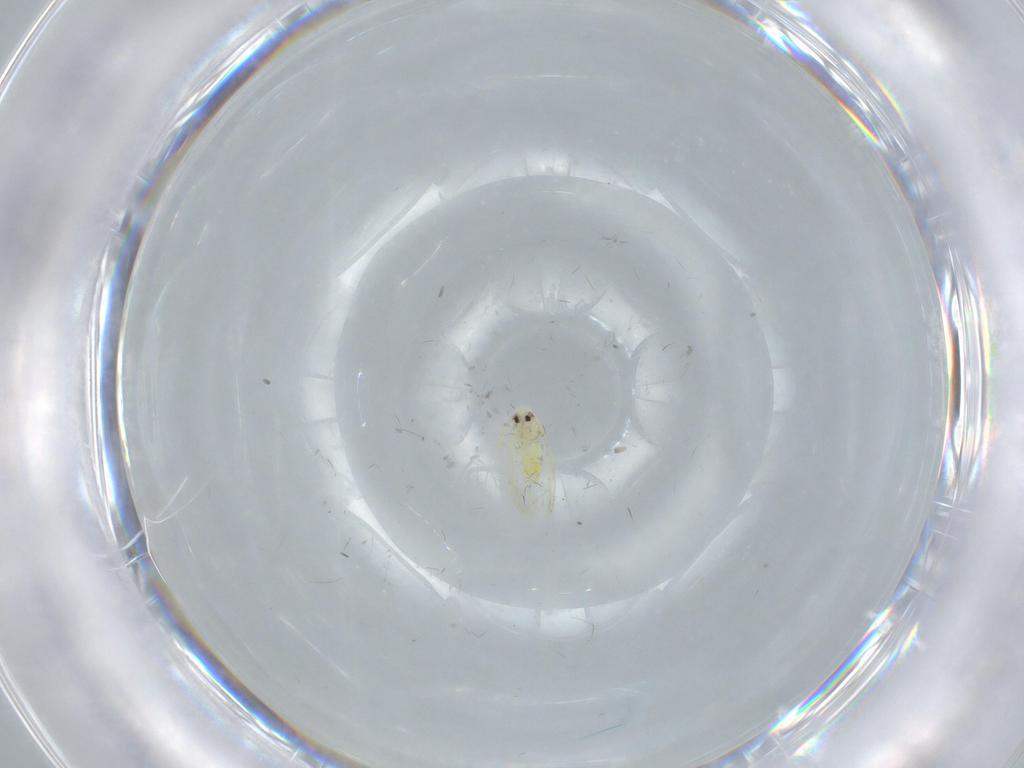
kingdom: Animalia
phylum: Arthropoda
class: Insecta
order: Hemiptera
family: Aleyrodidae
